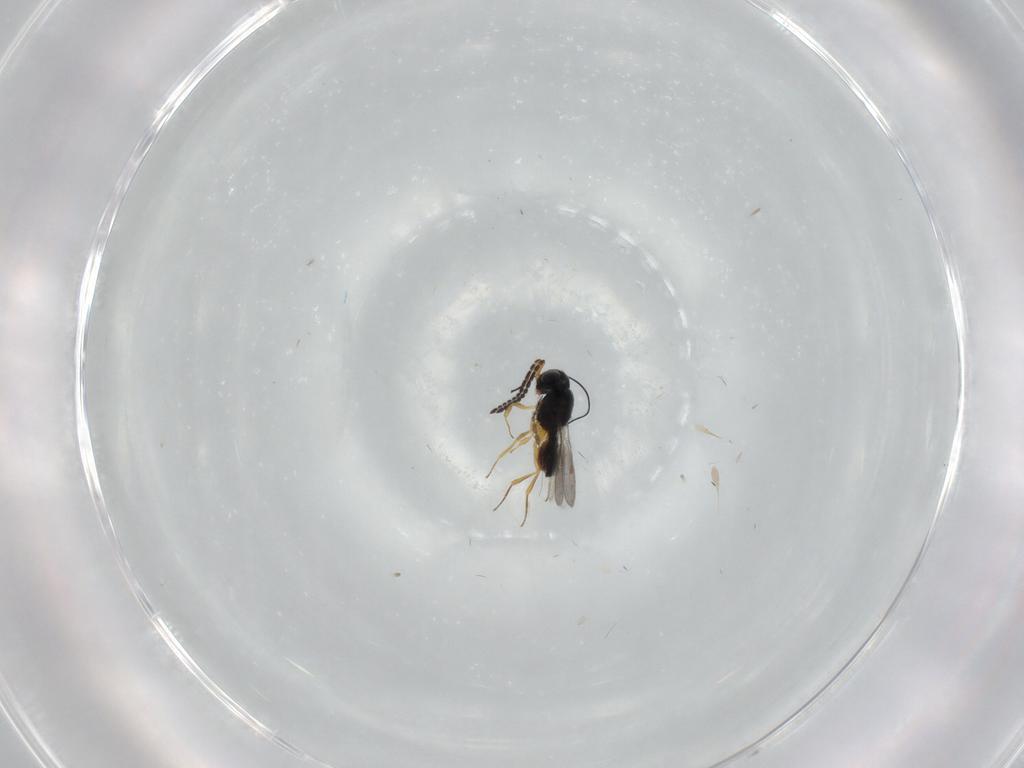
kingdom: Animalia
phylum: Arthropoda
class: Insecta
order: Hymenoptera
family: Scelionidae
